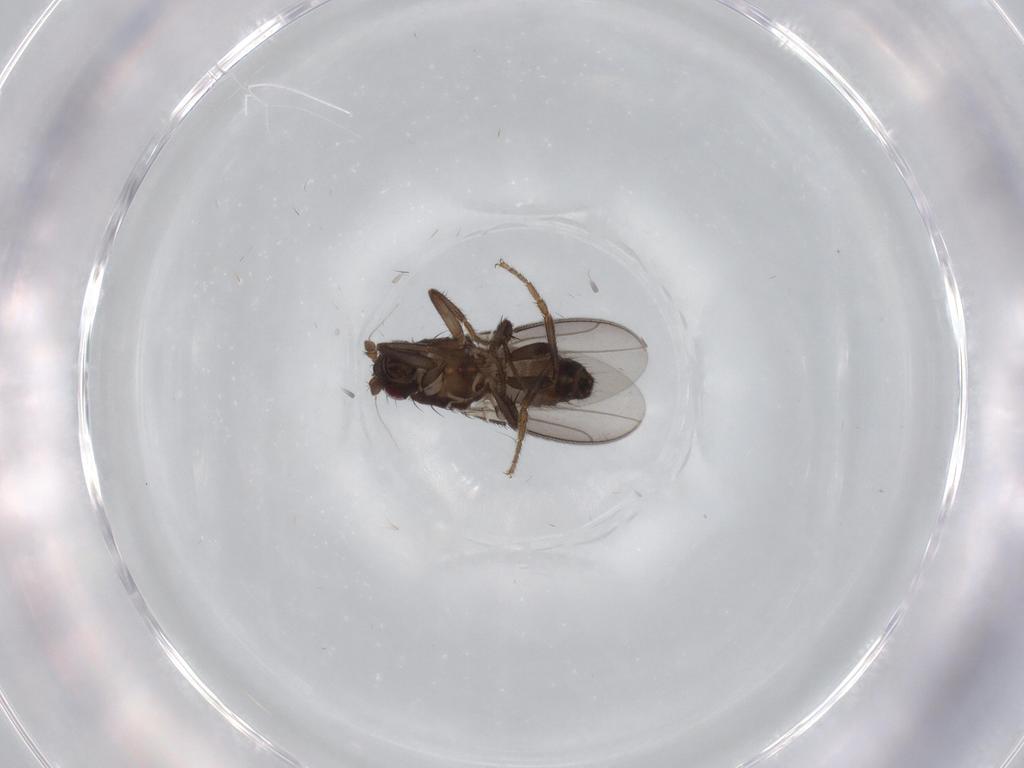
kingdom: Animalia
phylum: Arthropoda
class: Insecta
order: Diptera
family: Sphaeroceridae
